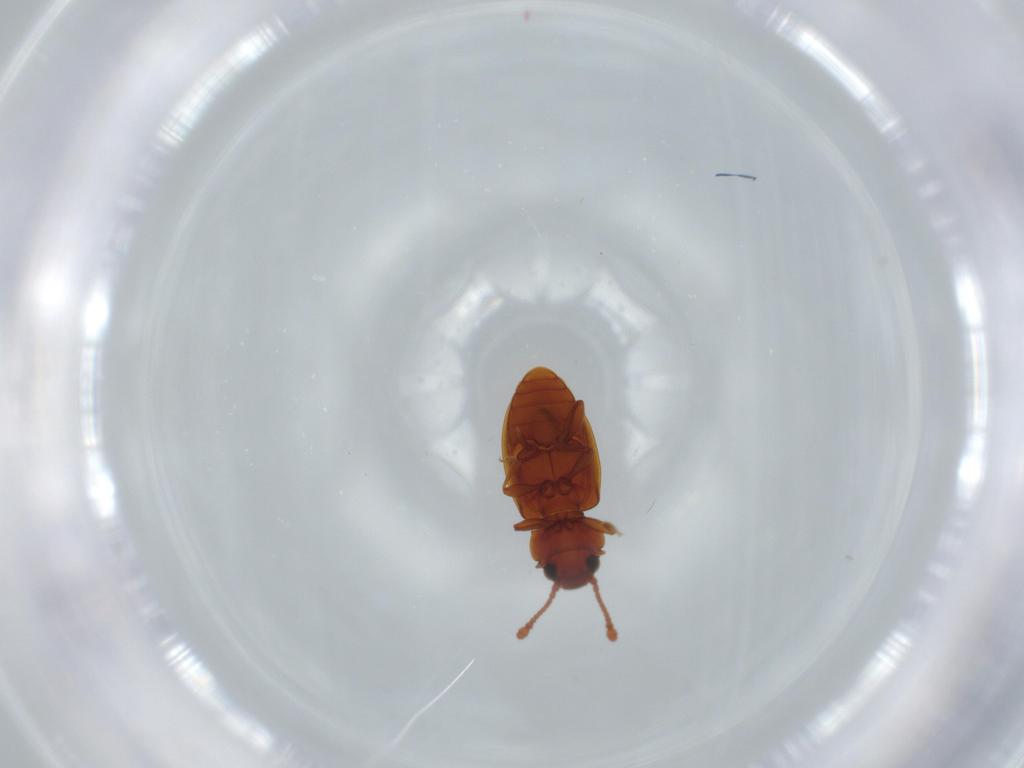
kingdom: Animalia
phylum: Arthropoda
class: Insecta
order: Coleoptera
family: Silvanidae
